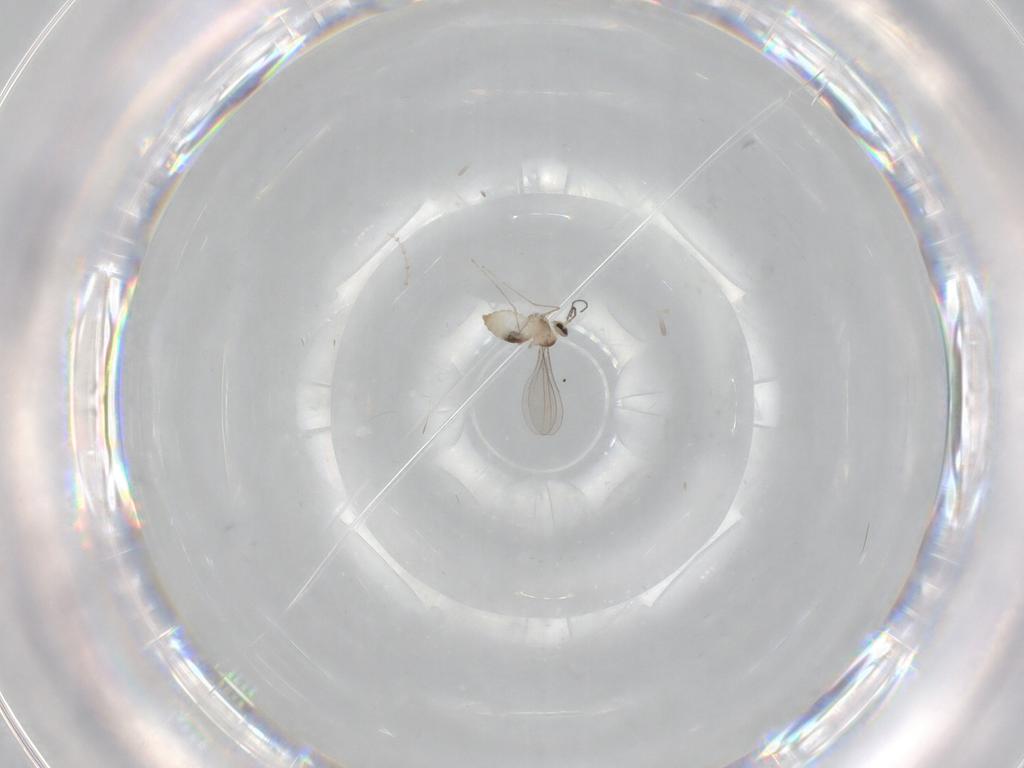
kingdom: Animalia
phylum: Arthropoda
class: Insecta
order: Diptera
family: Cecidomyiidae
